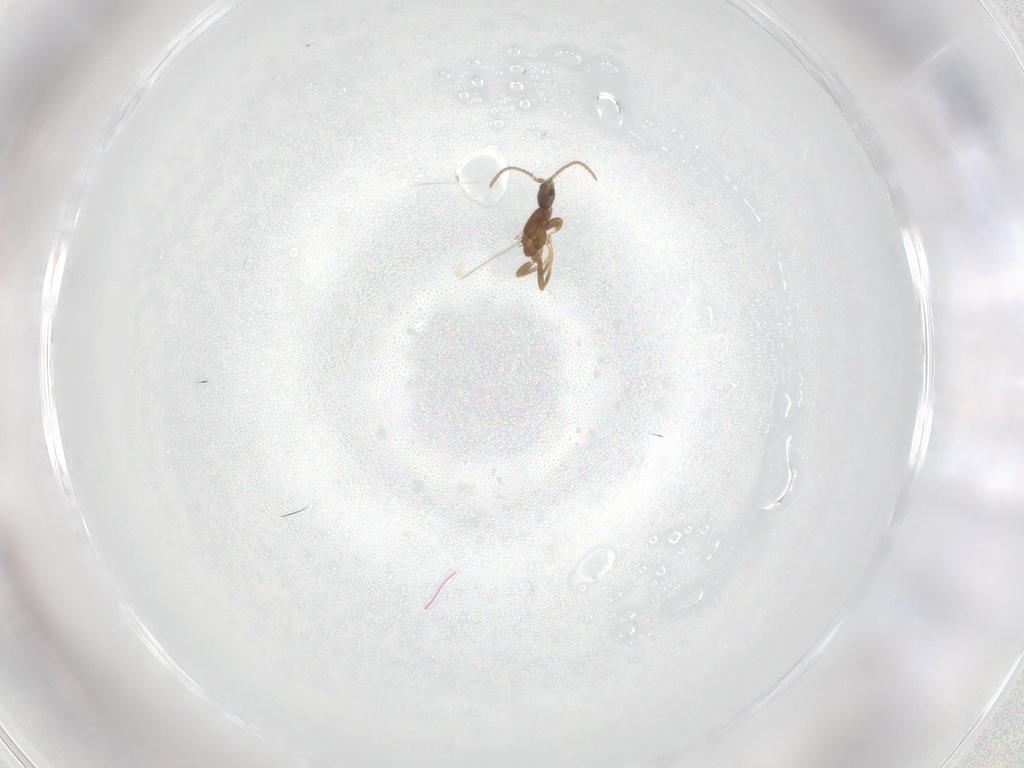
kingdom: Animalia
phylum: Arthropoda
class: Insecta
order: Hymenoptera
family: Formicidae
